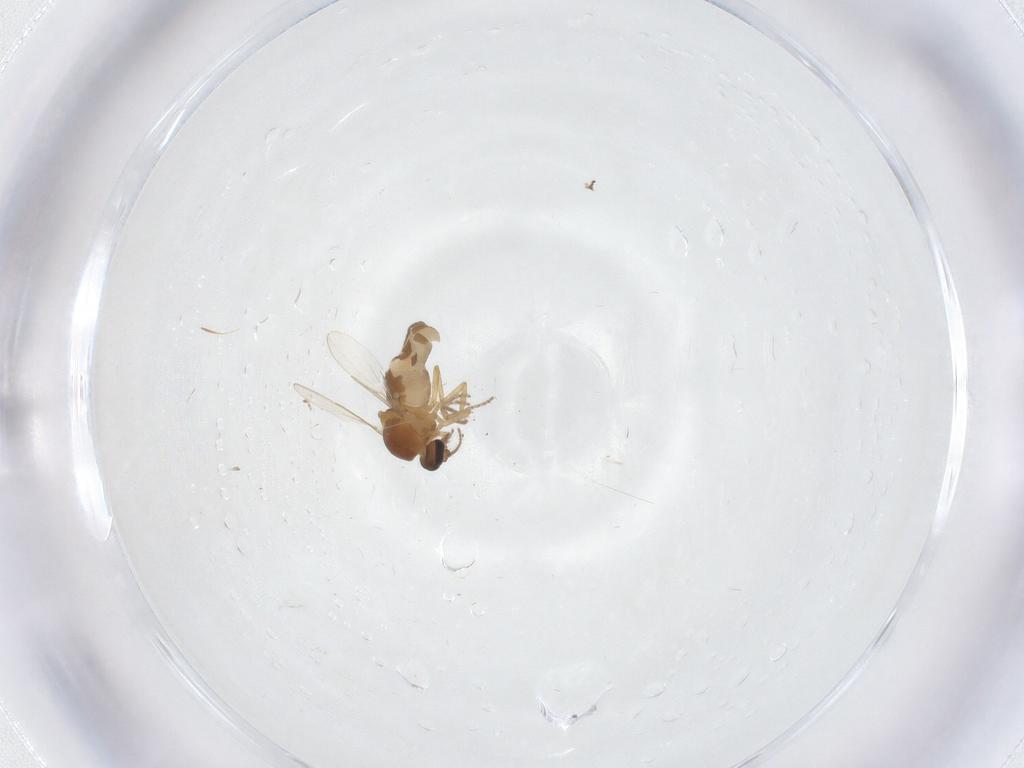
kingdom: Animalia
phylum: Arthropoda
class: Insecta
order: Diptera
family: Ceratopogonidae
